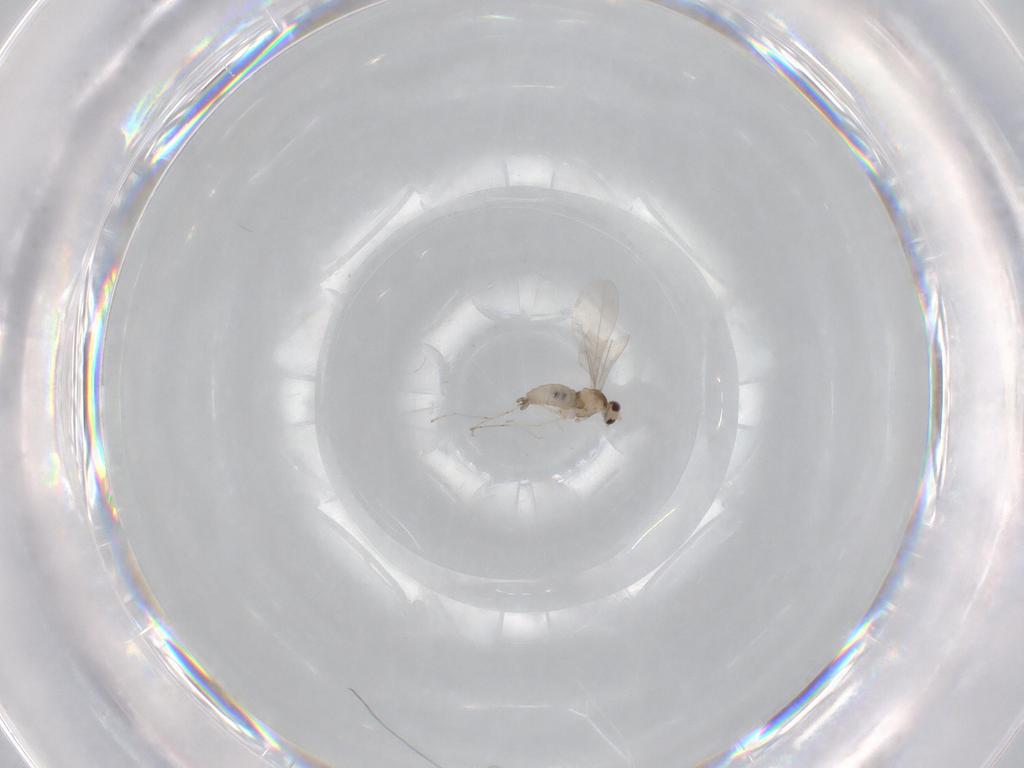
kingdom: Animalia
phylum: Arthropoda
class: Insecta
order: Diptera
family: Cecidomyiidae
